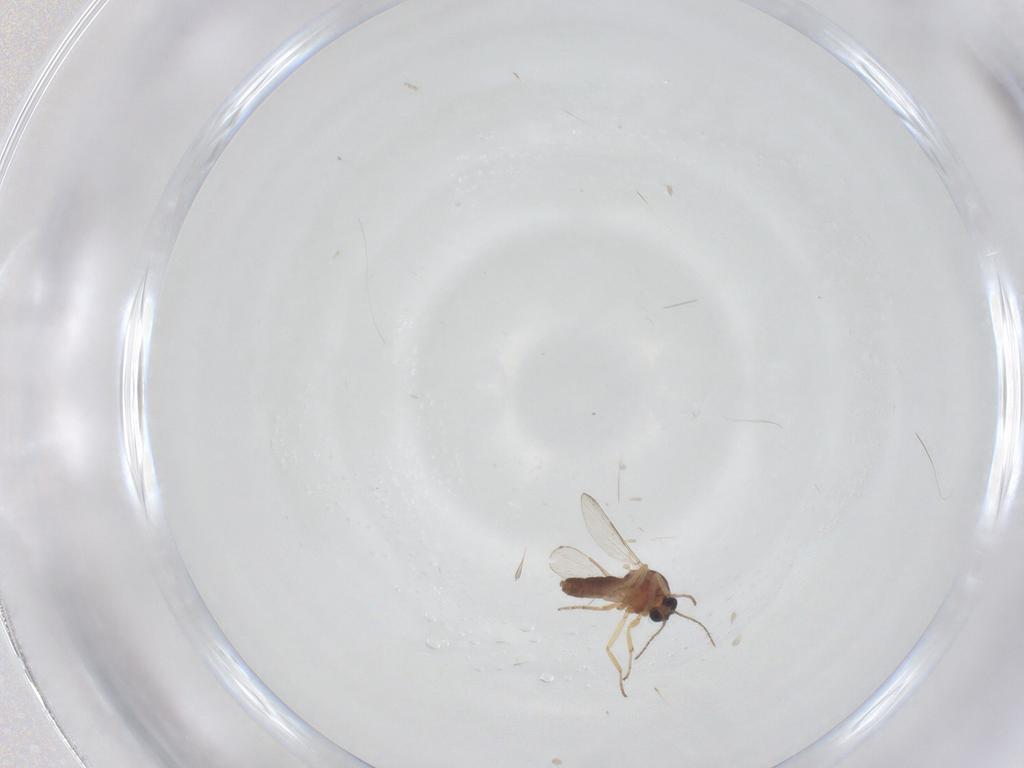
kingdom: Animalia
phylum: Arthropoda
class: Insecta
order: Diptera
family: Ceratopogonidae
